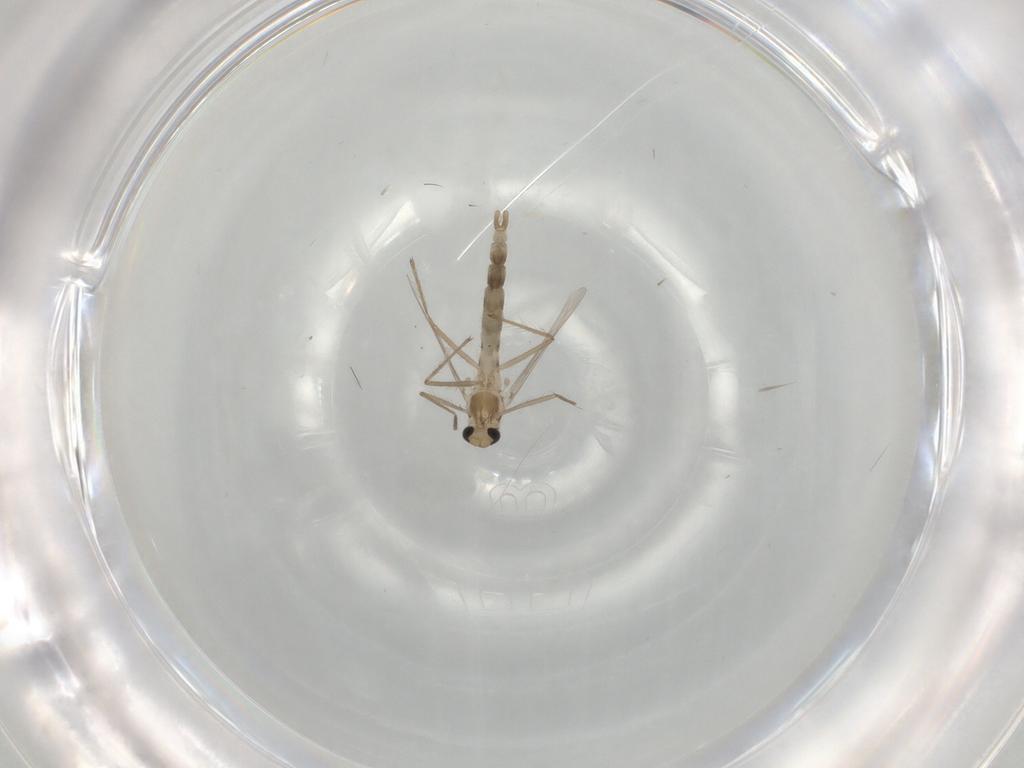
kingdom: Animalia
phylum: Arthropoda
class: Insecta
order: Diptera
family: Chironomidae
